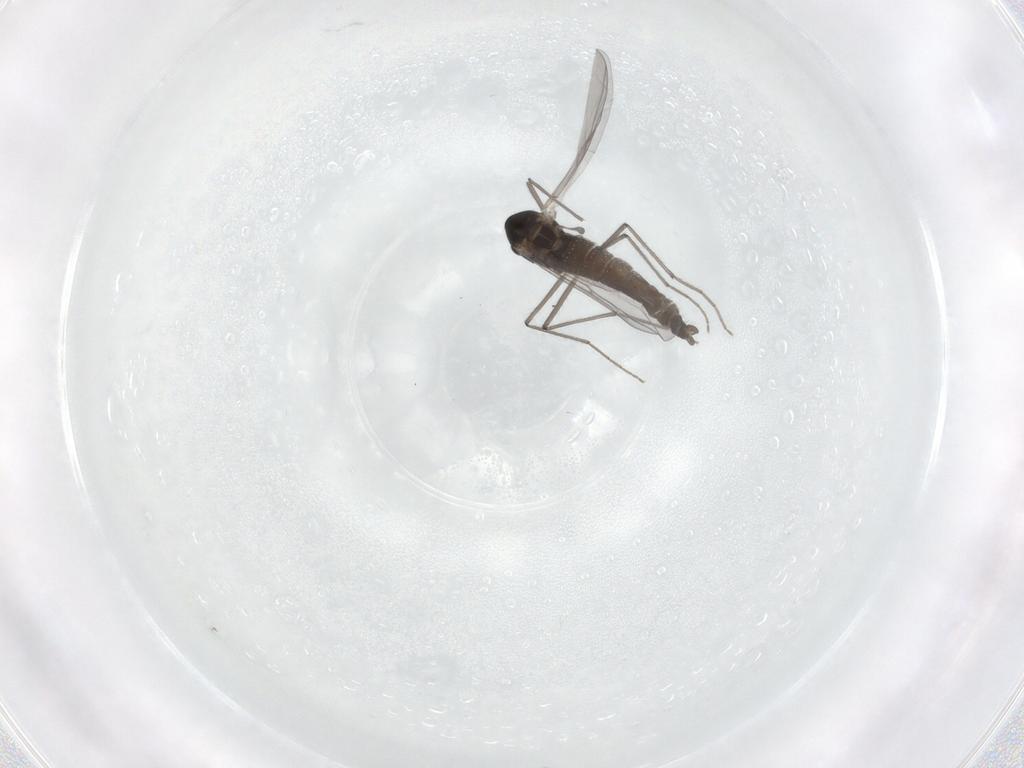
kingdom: Animalia
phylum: Arthropoda
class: Insecta
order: Diptera
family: Chironomidae
